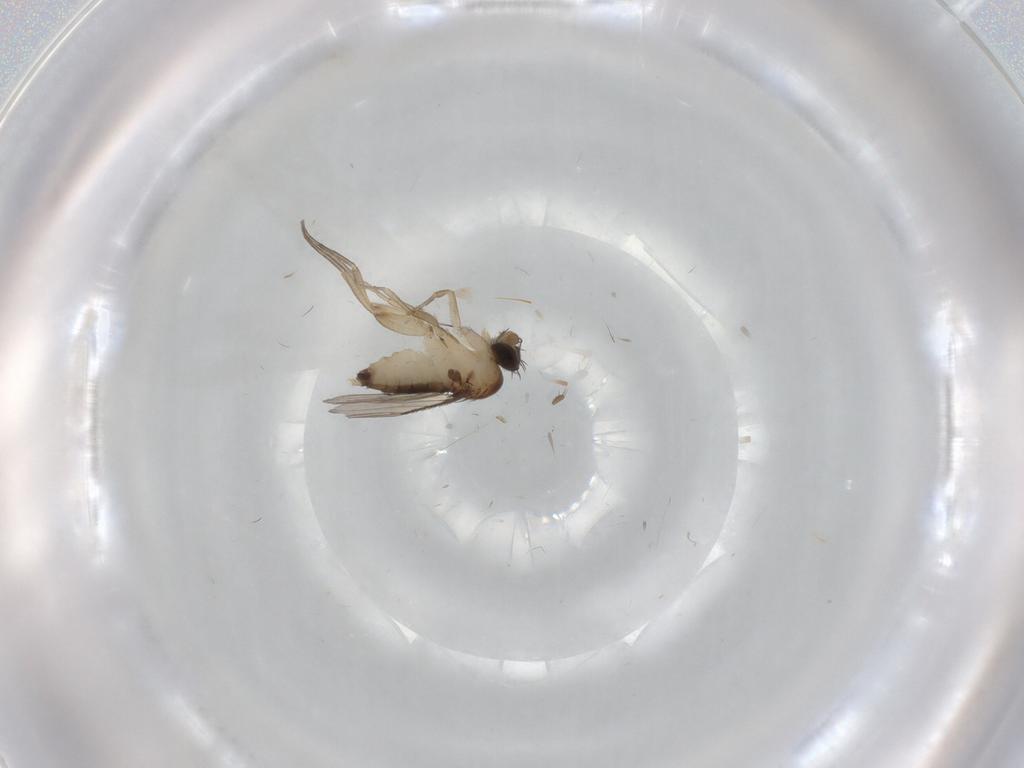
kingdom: Animalia
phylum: Arthropoda
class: Insecta
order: Diptera
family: Phoridae
